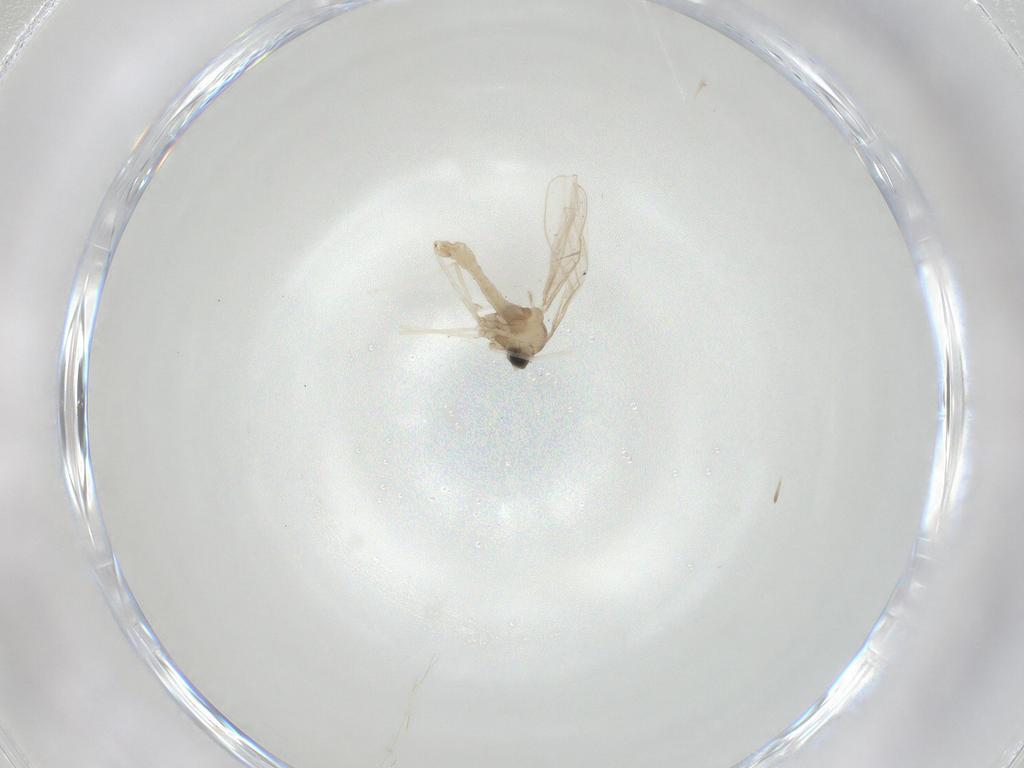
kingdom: Animalia
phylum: Arthropoda
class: Insecta
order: Diptera
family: Cecidomyiidae
